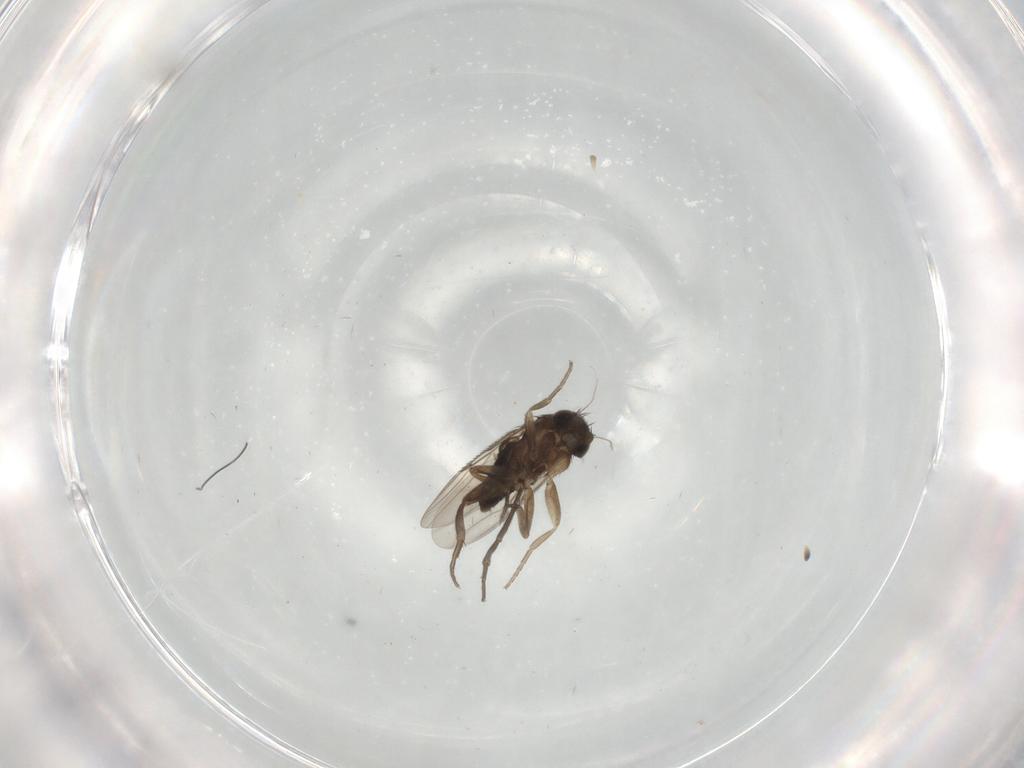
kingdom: Animalia
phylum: Arthropoda
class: Insecta
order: Diptera
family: Phoridae
